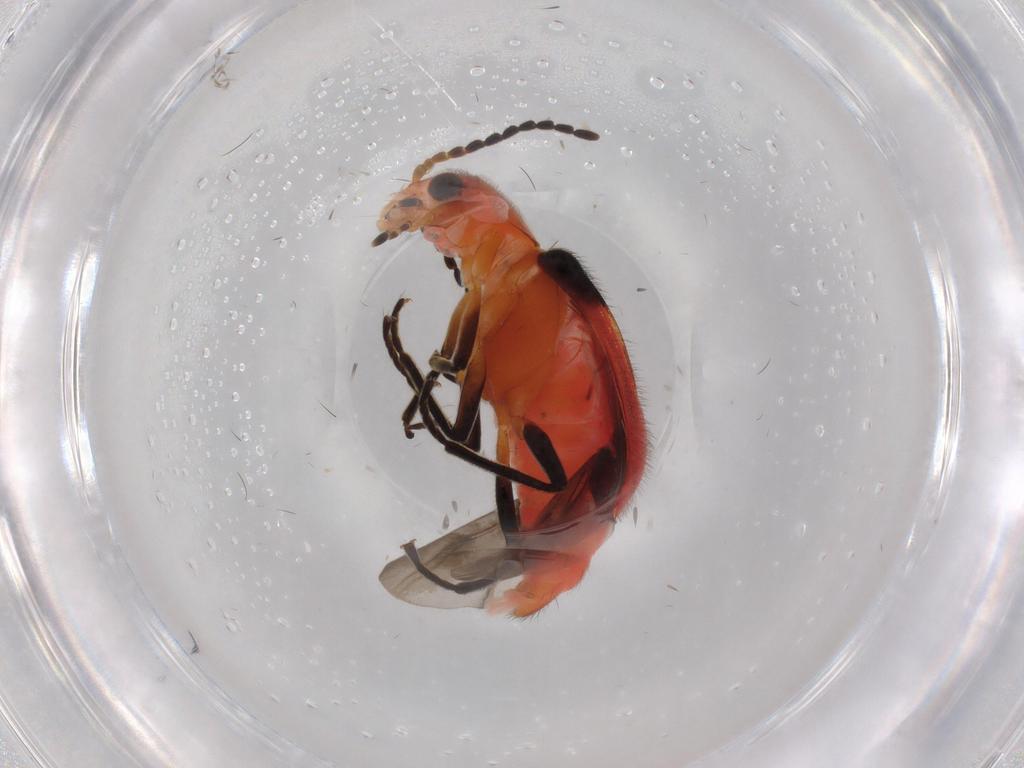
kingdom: Animalia
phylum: Arthropoda
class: Insecta
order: Coleoptera
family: Melyridae
